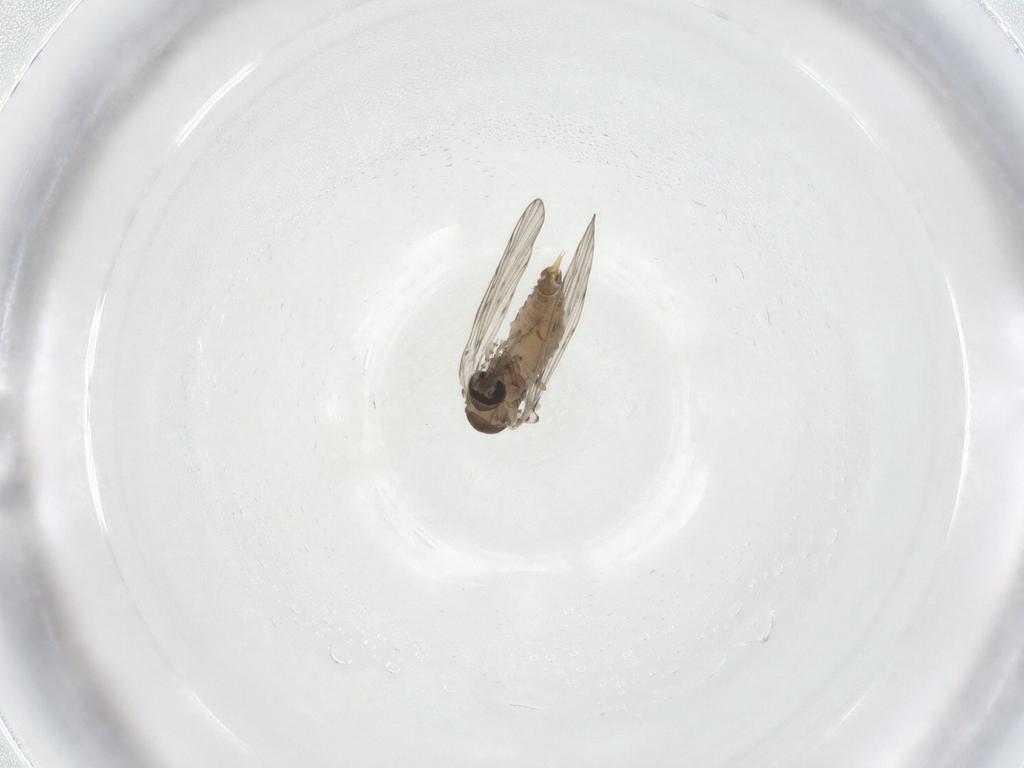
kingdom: Animalia
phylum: Arthropoda
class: Insecta
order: Diptera
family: Psychodidae
